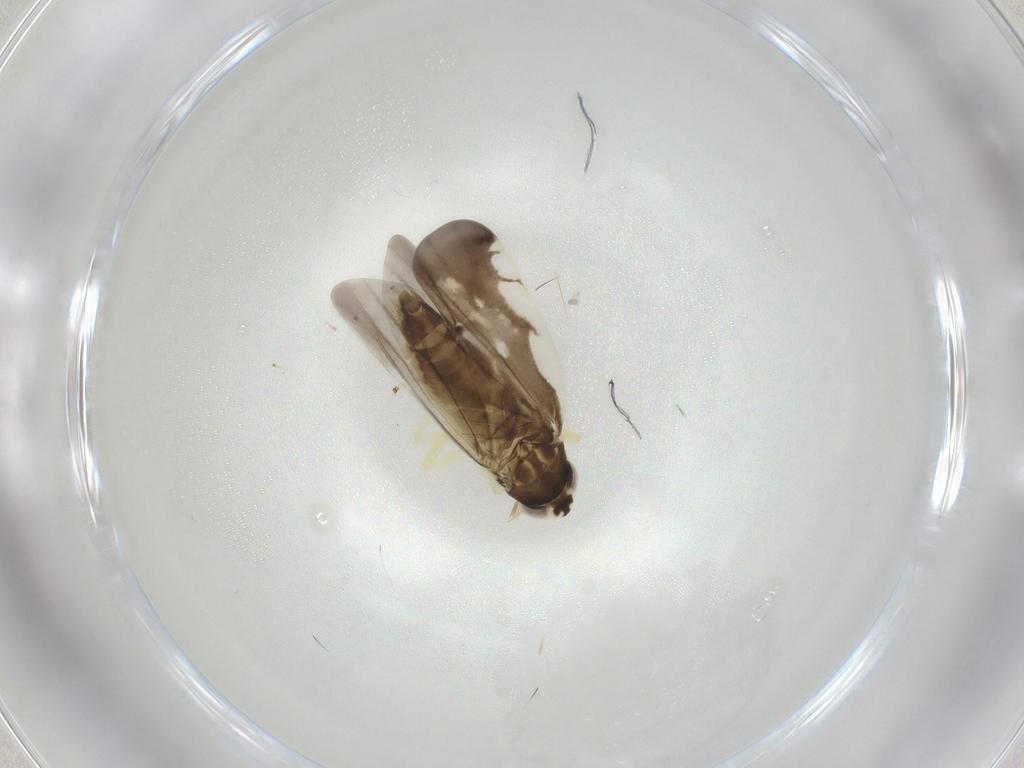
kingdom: Animalia
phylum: Arthropoda
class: Insecta
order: Hemiptera
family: Cicadellidae
